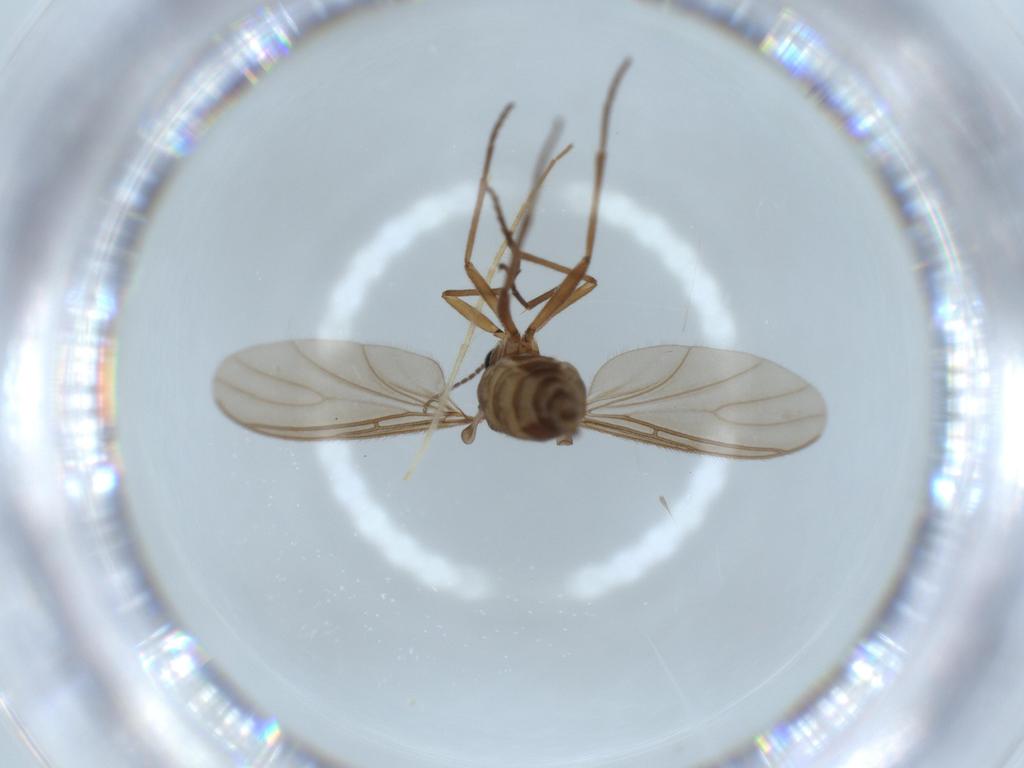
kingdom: Animalia
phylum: Arthropoda
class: Insecta
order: Diptera
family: Sciaridae
